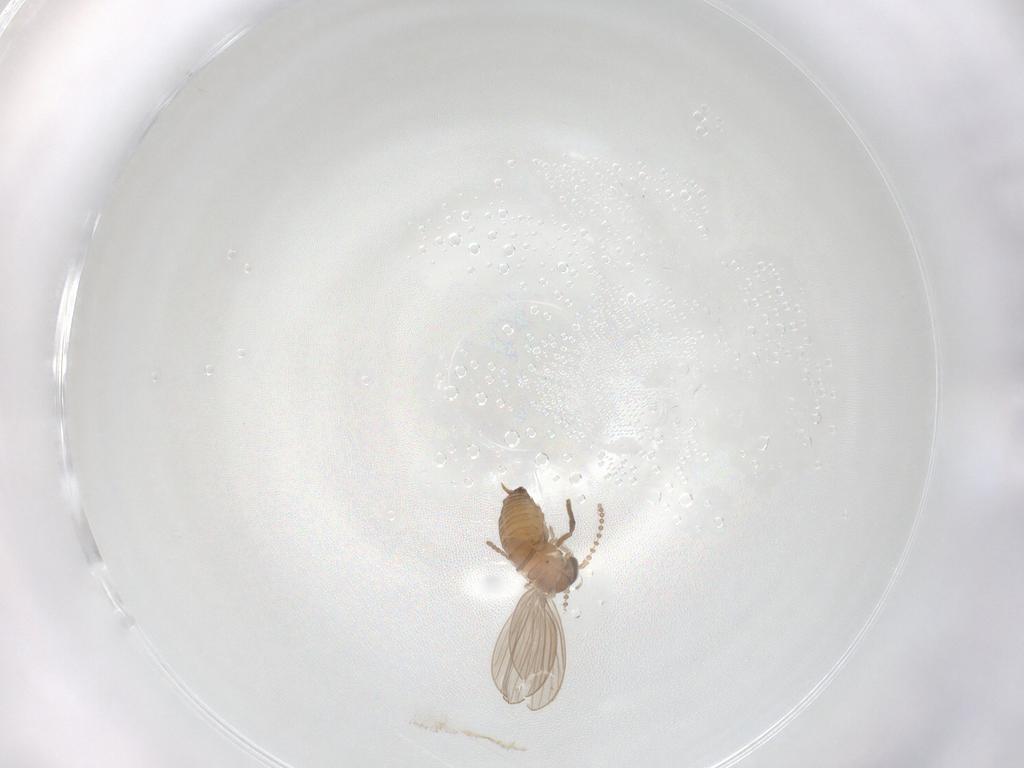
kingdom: Animalia
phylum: Arthropoda
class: Insecta
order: Diptera
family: Psychodidae
